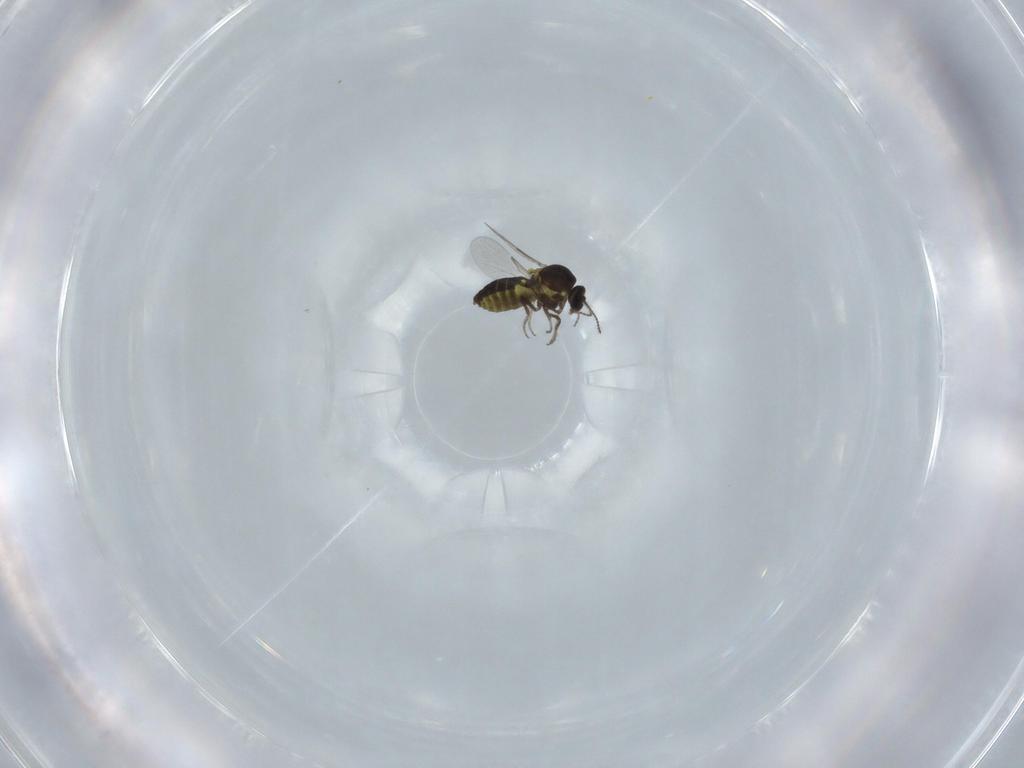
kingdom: Animalia
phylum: Arthropoda
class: Insecta
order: Diptera
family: Ceratopogonidae
